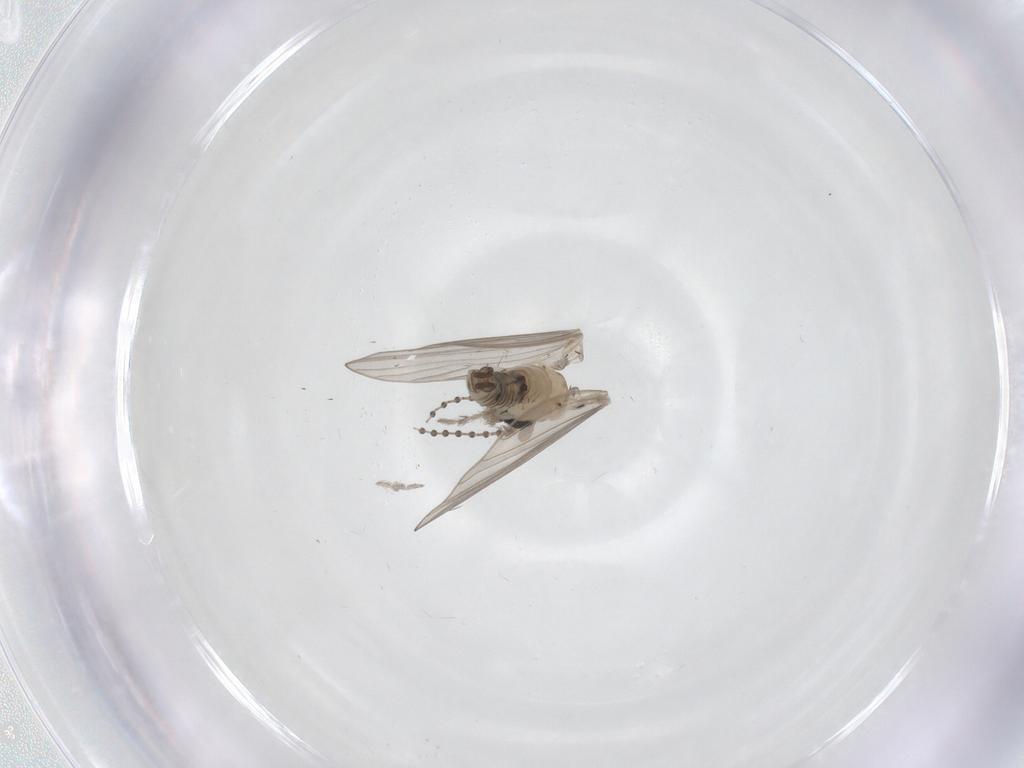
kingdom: Animalia
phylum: Arthropoda
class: Insecta
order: Diptera
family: Psychodidae
